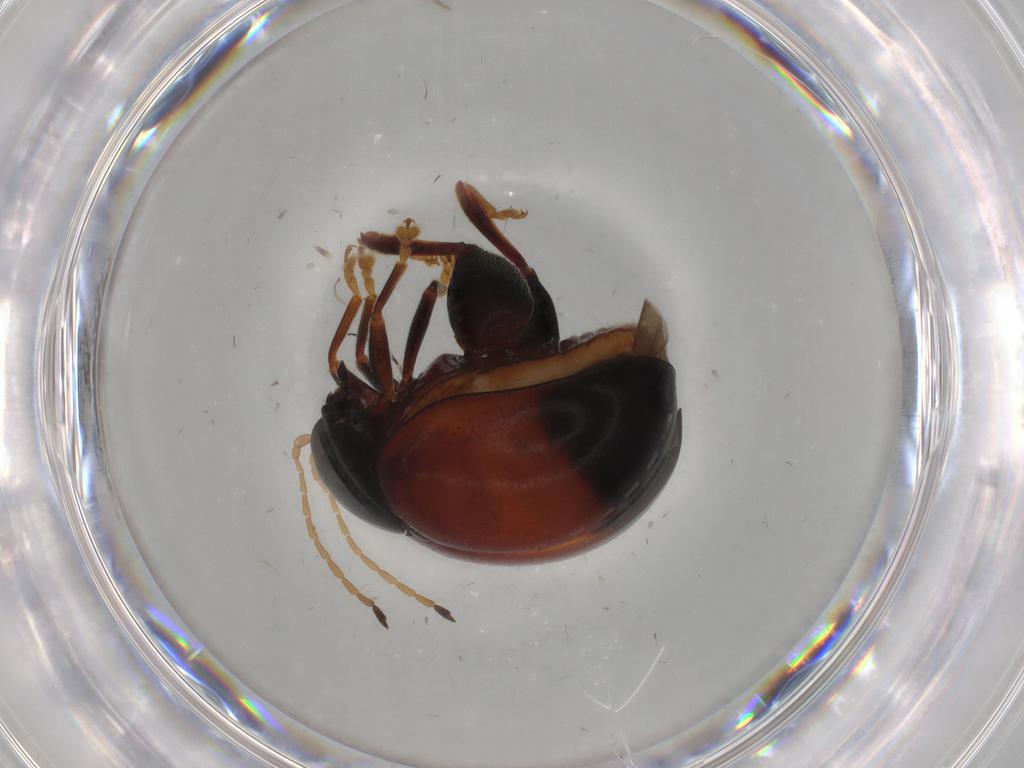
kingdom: Animalia
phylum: Arthropoda
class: Insecta
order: Coleoptera
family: Chrysomelidae
